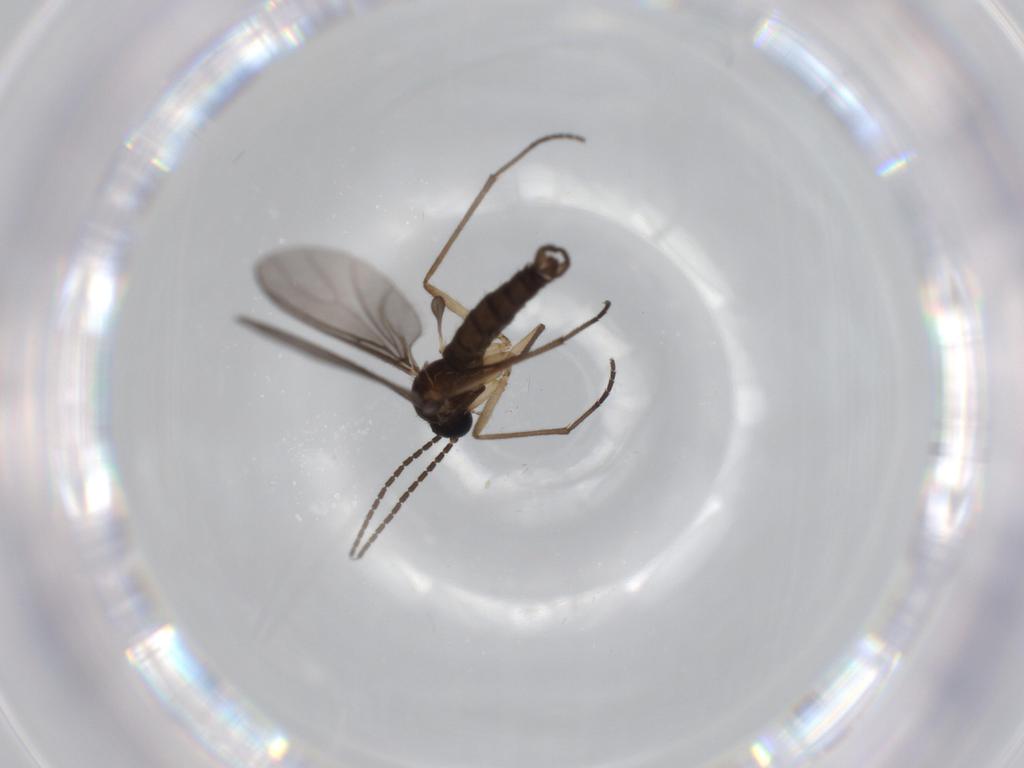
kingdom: Animalia
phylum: Arthropoda
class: Insecta
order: Diptera
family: Sciaridae
